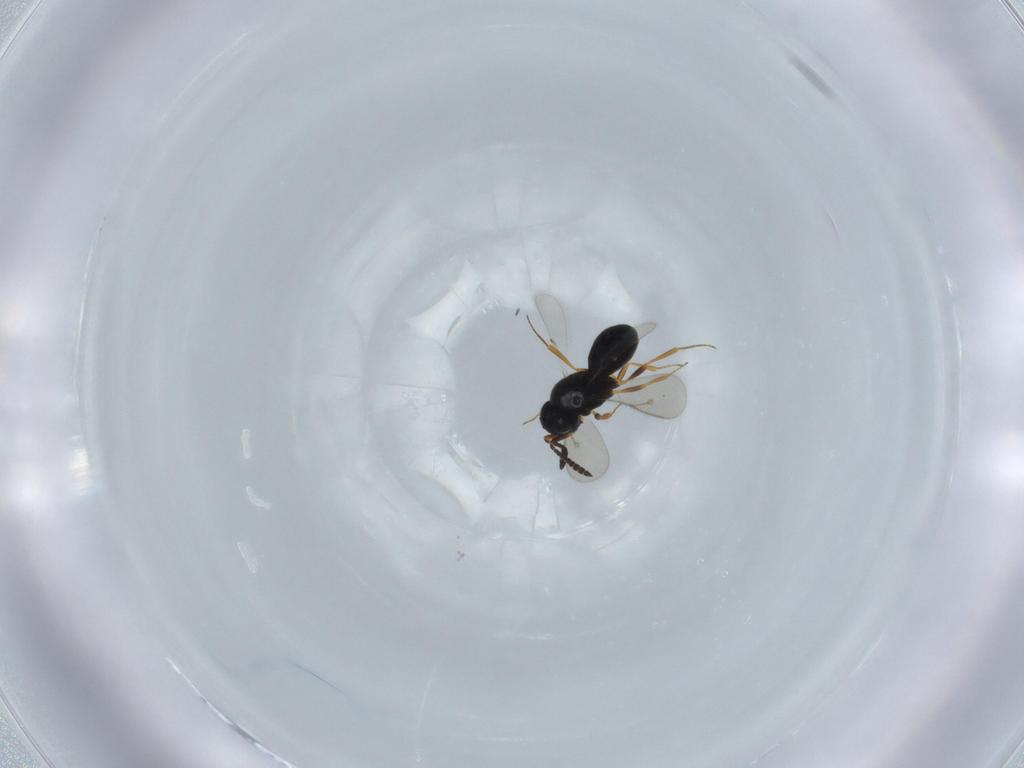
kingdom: Animalia
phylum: Arthropoda
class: Insecta
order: Hymenoptera
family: Scelionidae
